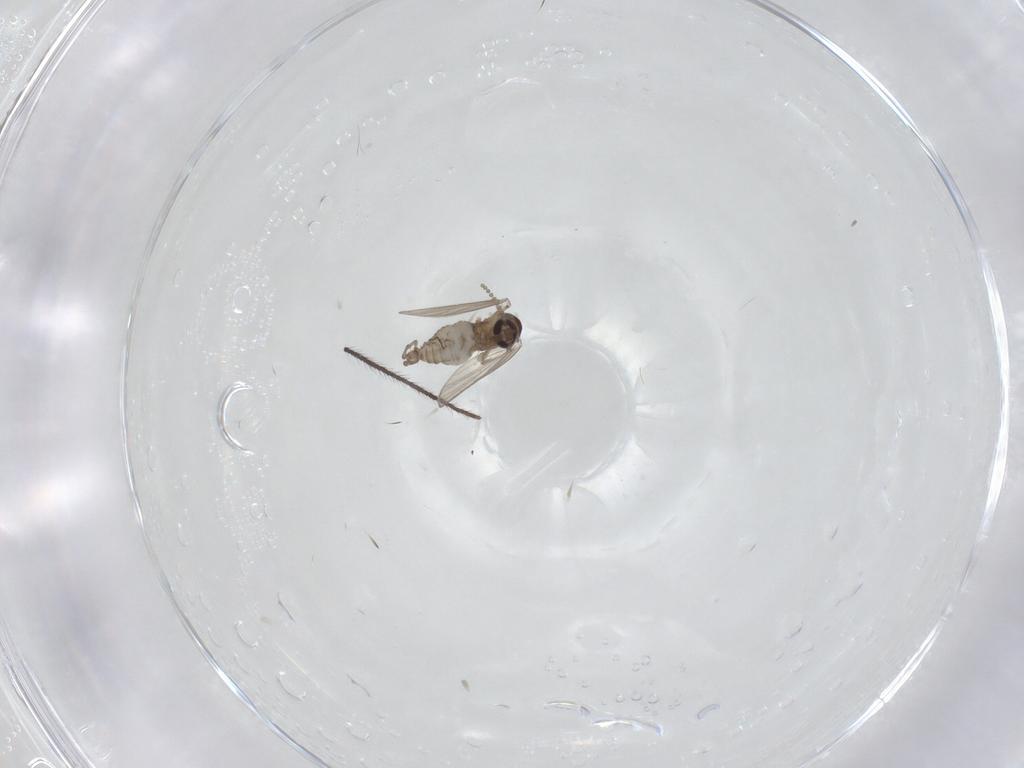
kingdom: Animalia
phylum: Arthropoda
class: Insecta
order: Diptera
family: Psychodidae
